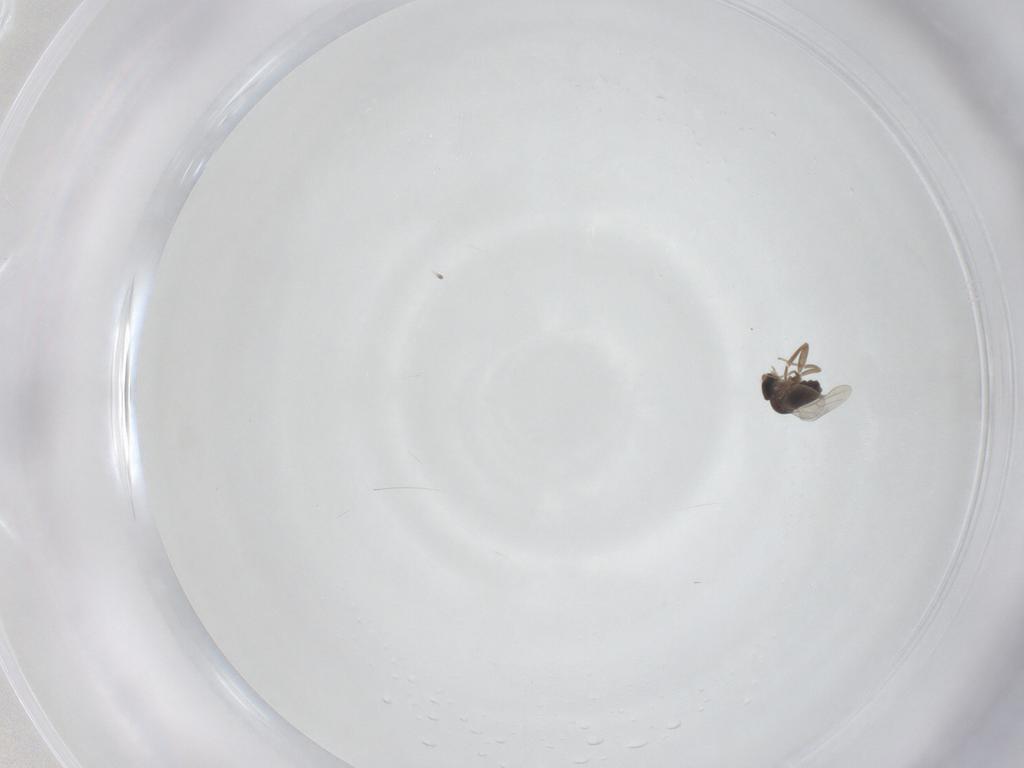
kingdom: Animalia
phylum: Arthropoda
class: Insecta
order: Diptera
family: Phoridae
